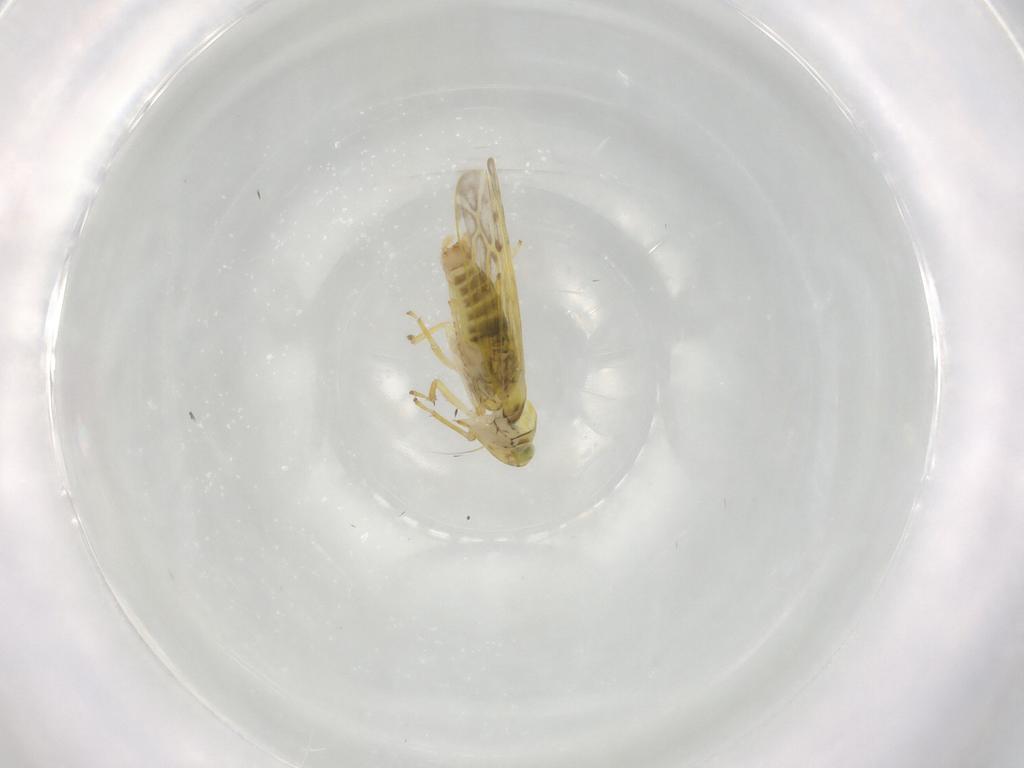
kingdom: Animalia
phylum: Arthropoda
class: Insecta
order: Hemiptera
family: Cicadellidae
